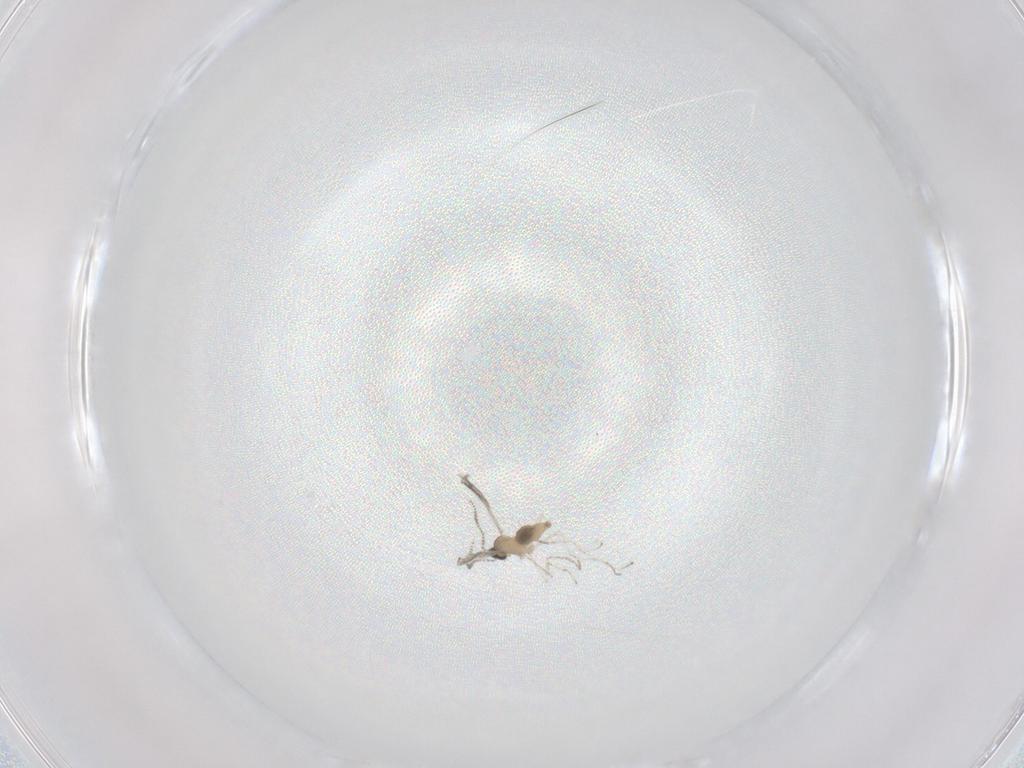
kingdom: Animalia
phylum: Arthropoda
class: Insecta
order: Diptera
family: Cecidomyiidae
